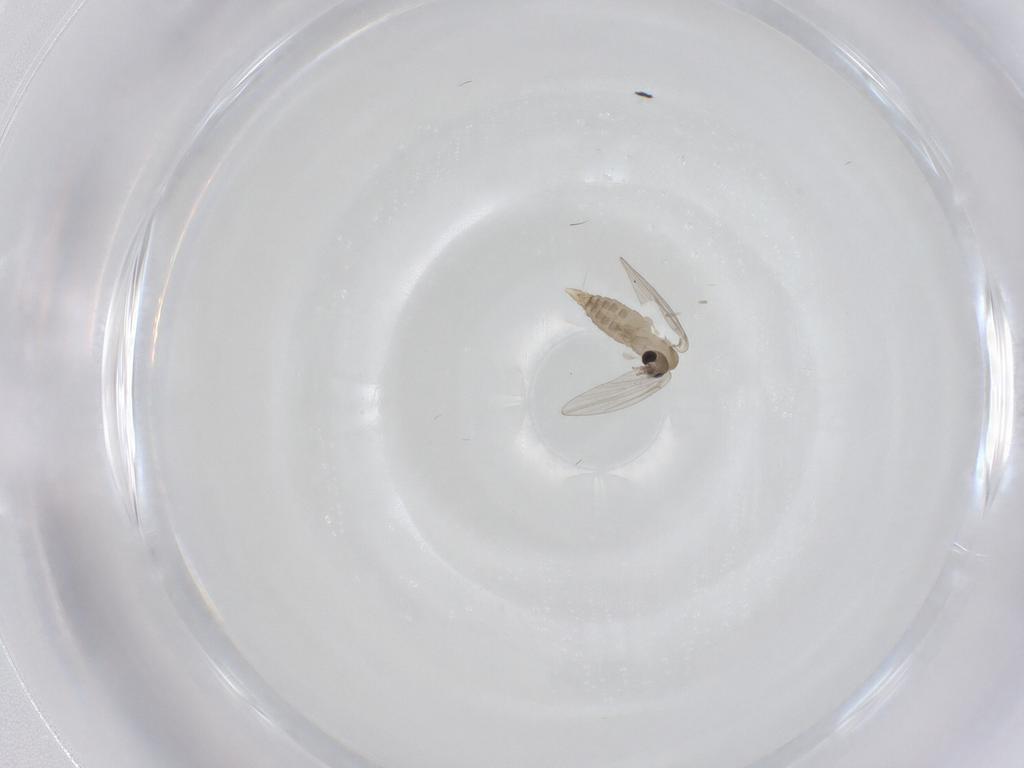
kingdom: Animalia
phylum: Arthropoda
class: Insecta
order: Diptera
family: Psychodidae
